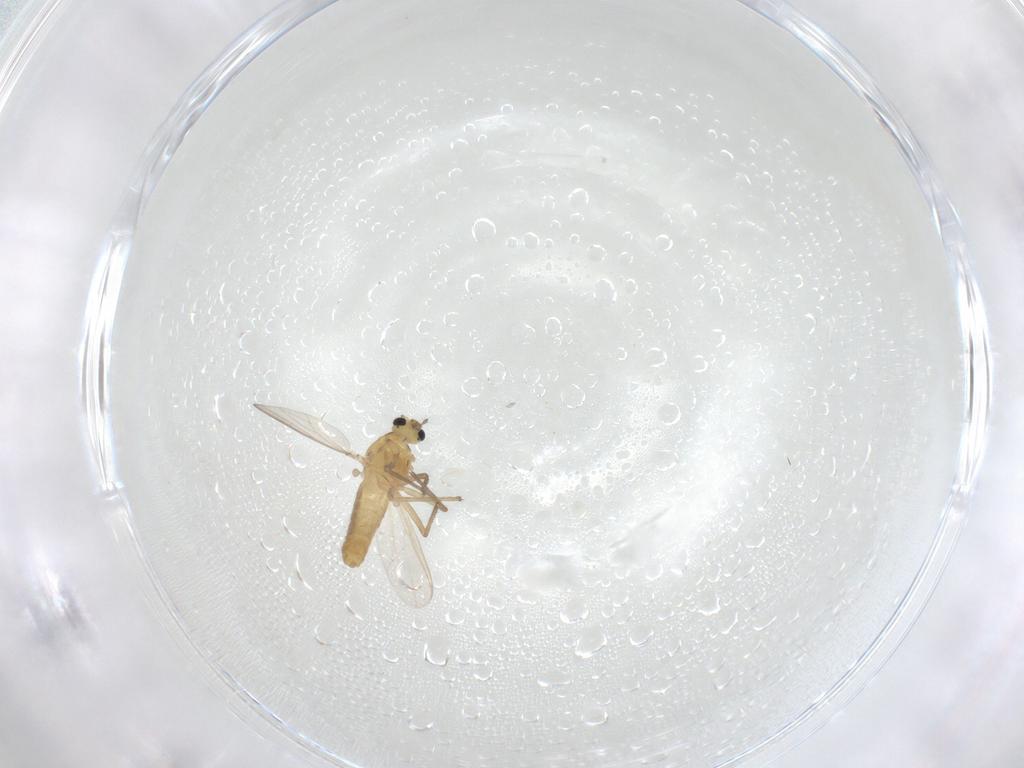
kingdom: Animalia
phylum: Arthropoda
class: Insecta
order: Diptera
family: Chironomidae
